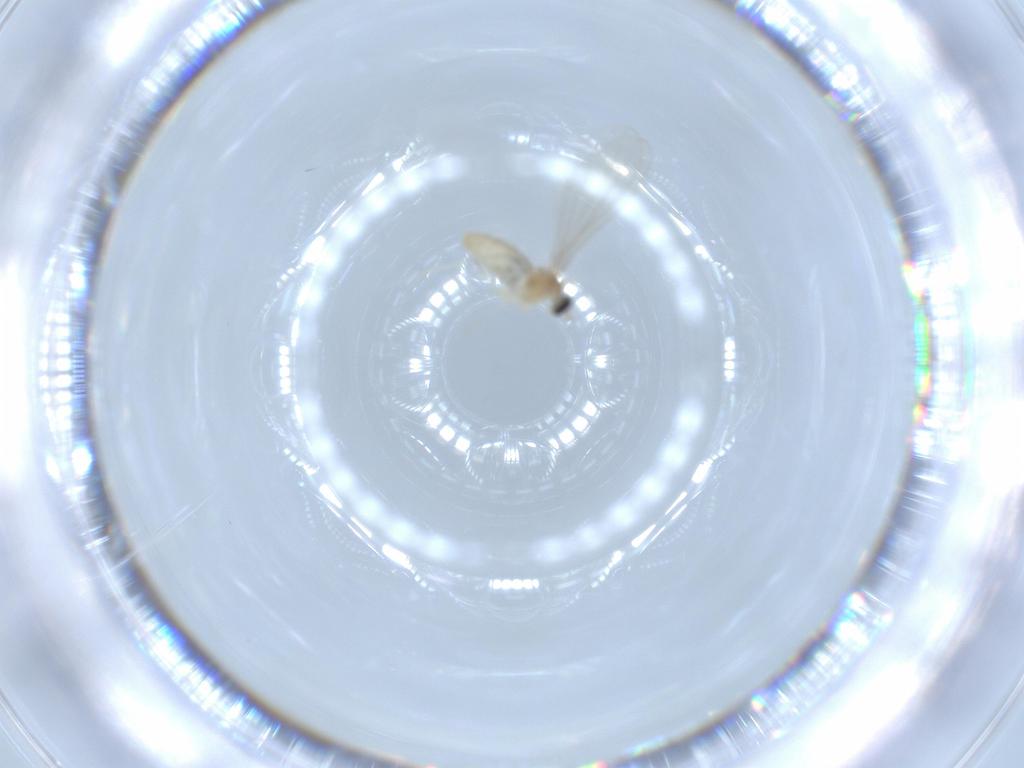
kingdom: Animalia
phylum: Arthropoda
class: Insecta
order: Diptera
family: Cecidomyiidae
